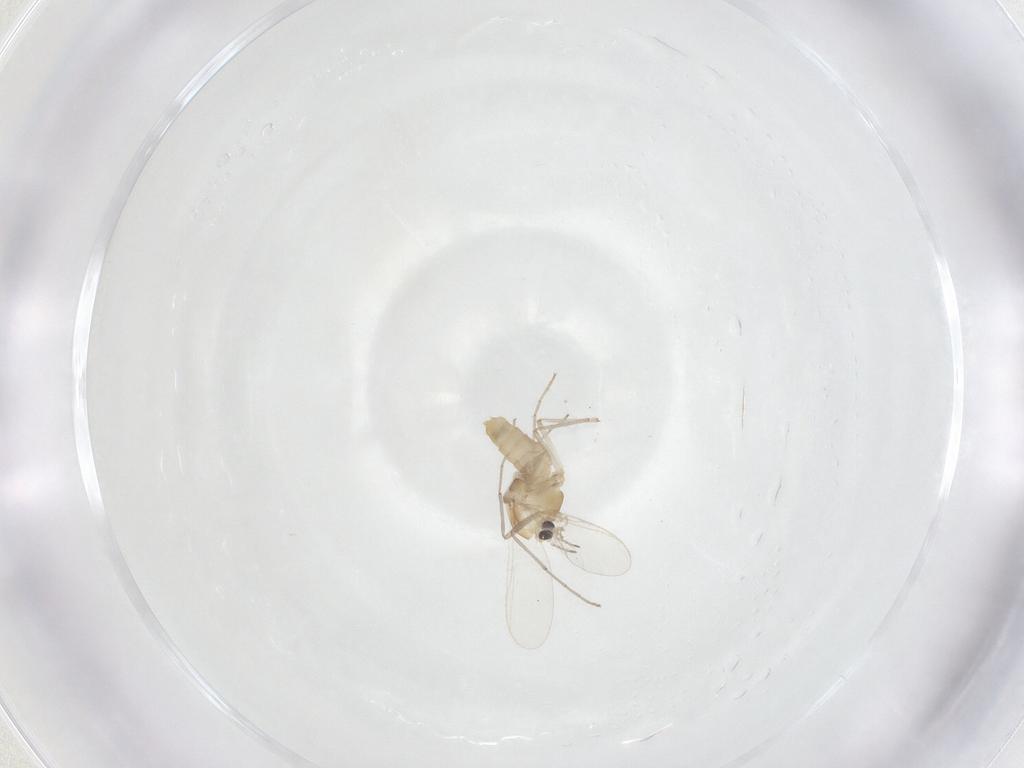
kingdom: Animalia
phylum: Arthropoda
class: Insecta
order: Diptera
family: Chironomidae
